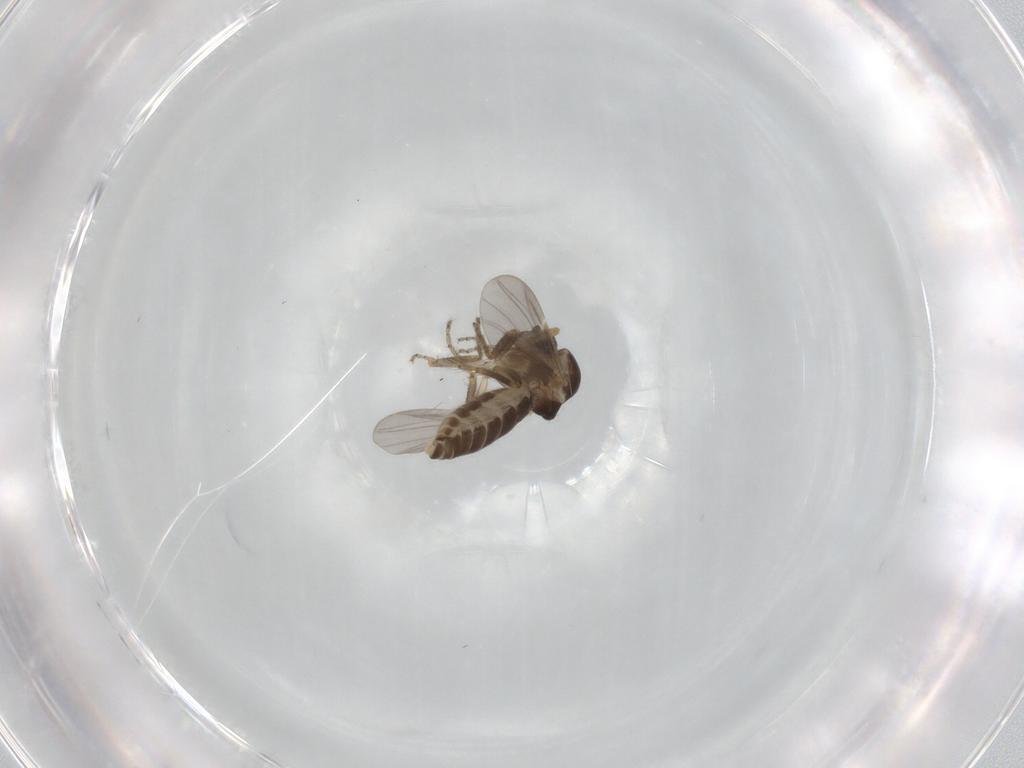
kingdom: Animalia
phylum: Arthropoda
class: Insecta
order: Diptera
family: Ceratopogonidae
